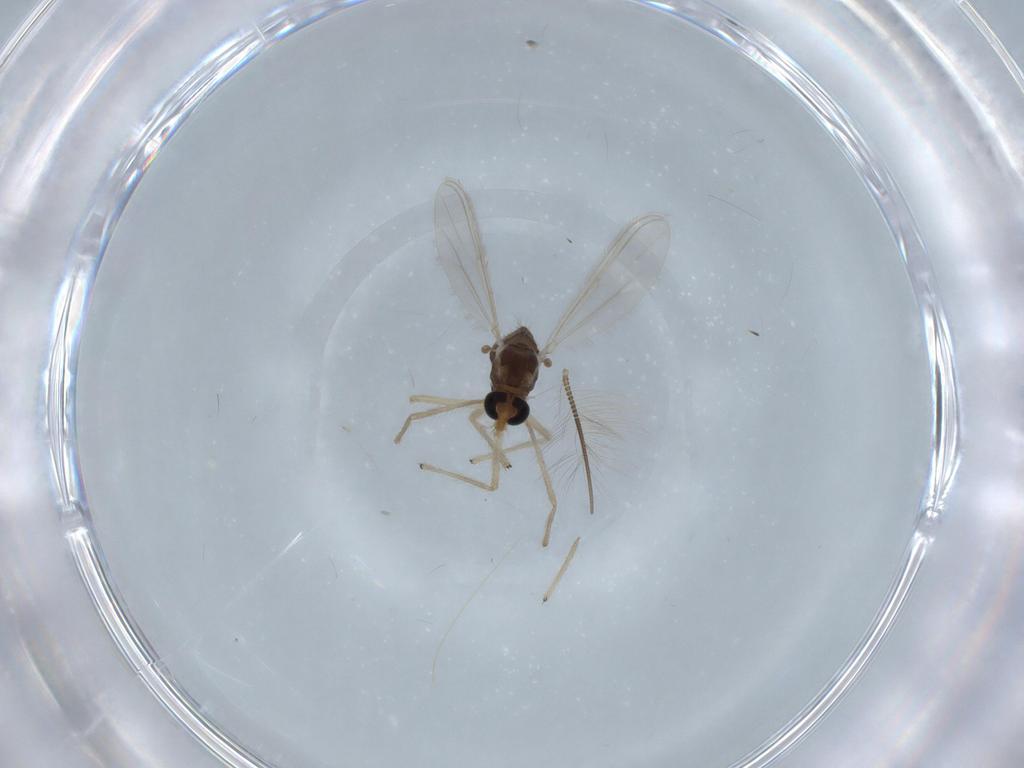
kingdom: Animalia
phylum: Arthropoda
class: Insecta
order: Diptera
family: Chironomidae
